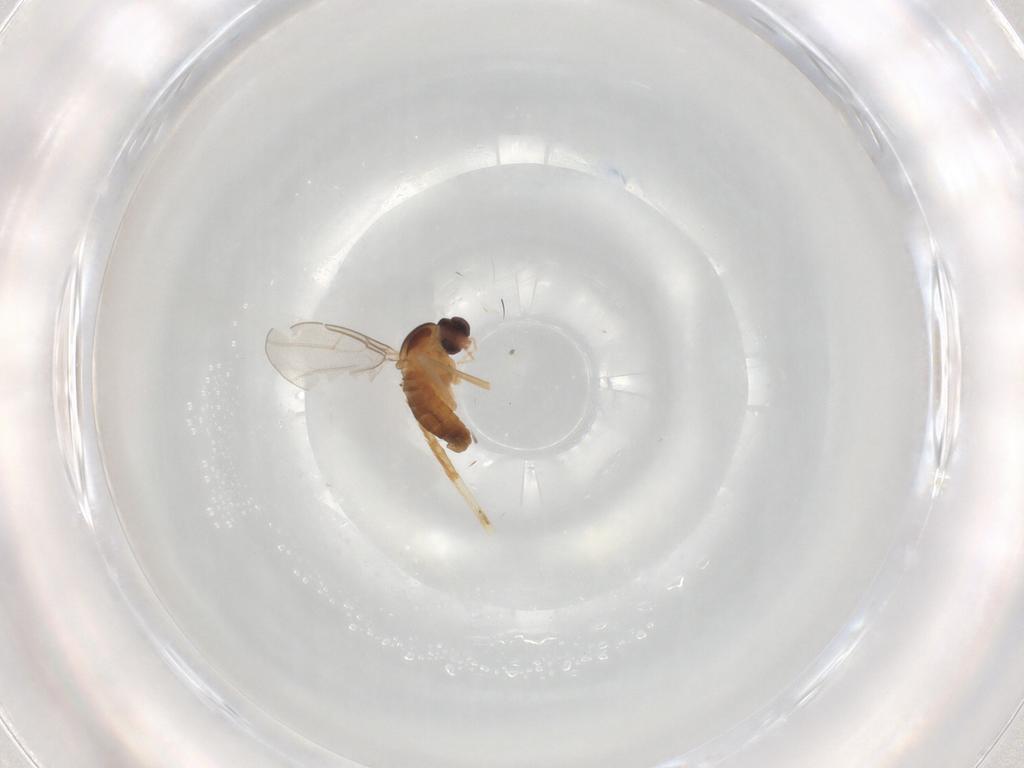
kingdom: Animalia
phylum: Arthropoda
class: Insecta
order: Diptera
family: Cecidomyiidae
